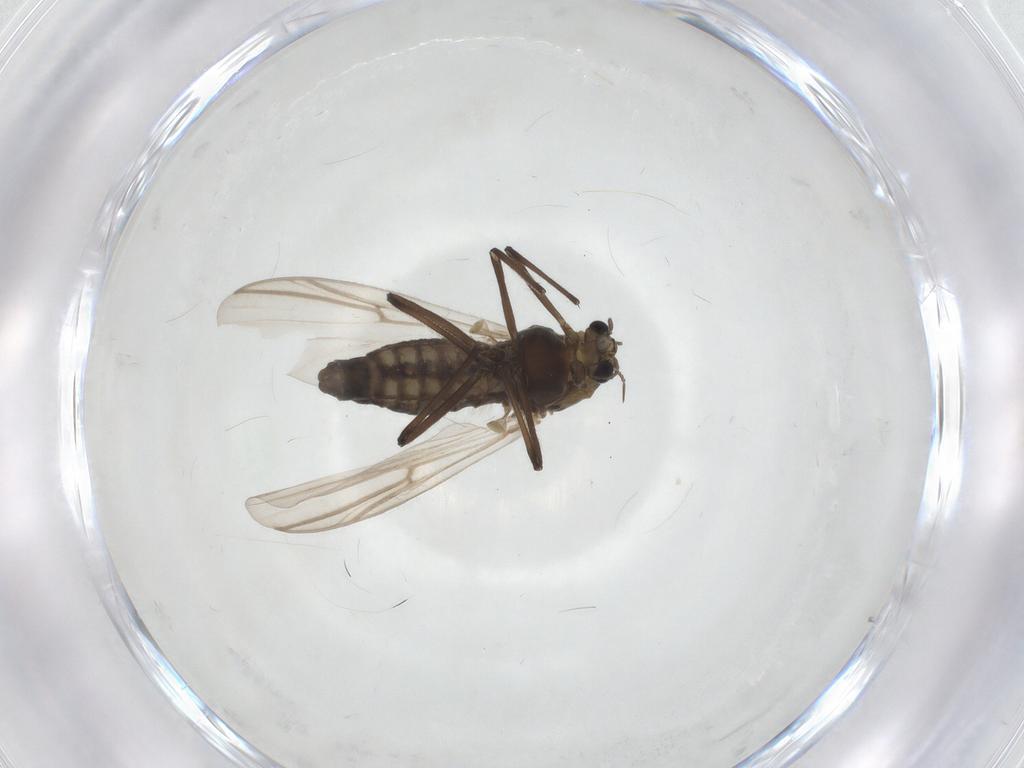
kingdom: Animalia
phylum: Arthropoda
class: Insecta
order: Diptera
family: Chironomidae
